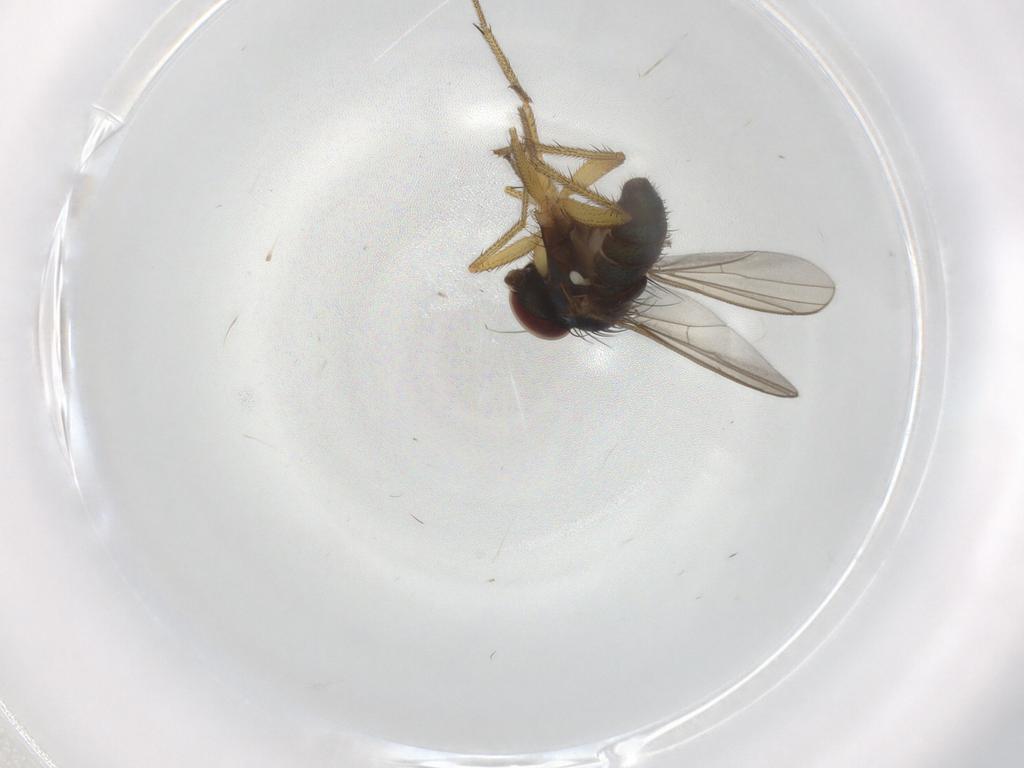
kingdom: Animalia
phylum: Arthropoda
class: Insecta
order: Diptera
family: Dolichopodidae
